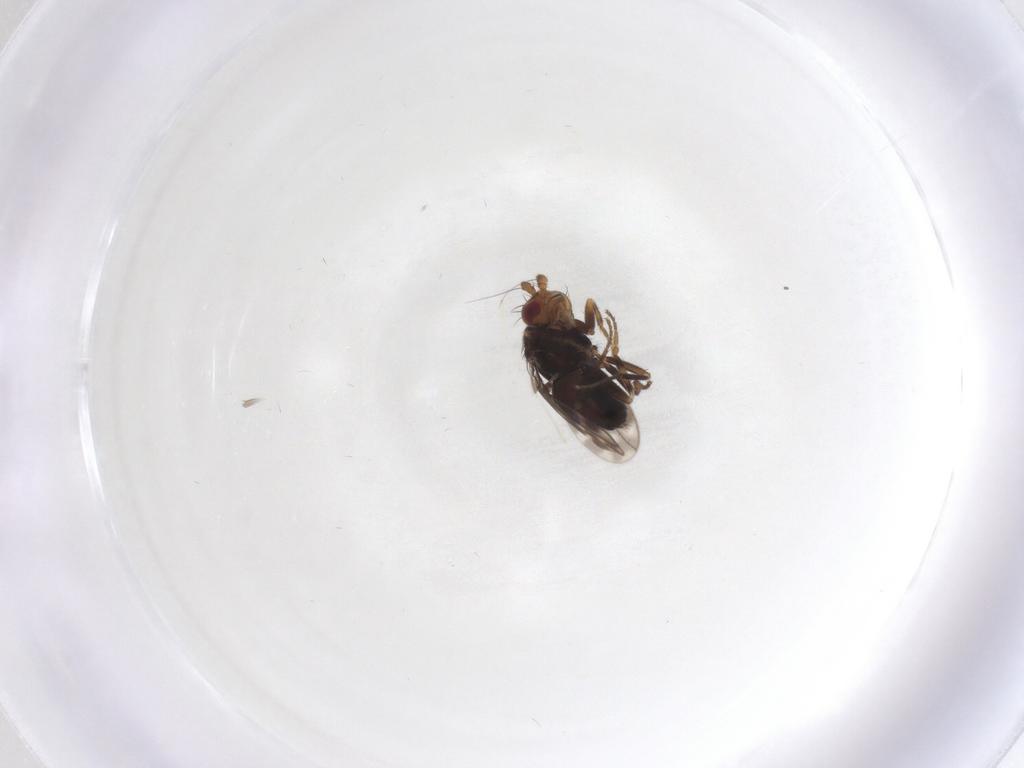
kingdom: Animalia
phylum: Arthropoda
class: Insecta
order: Diptera
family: Sphaeroceridae
